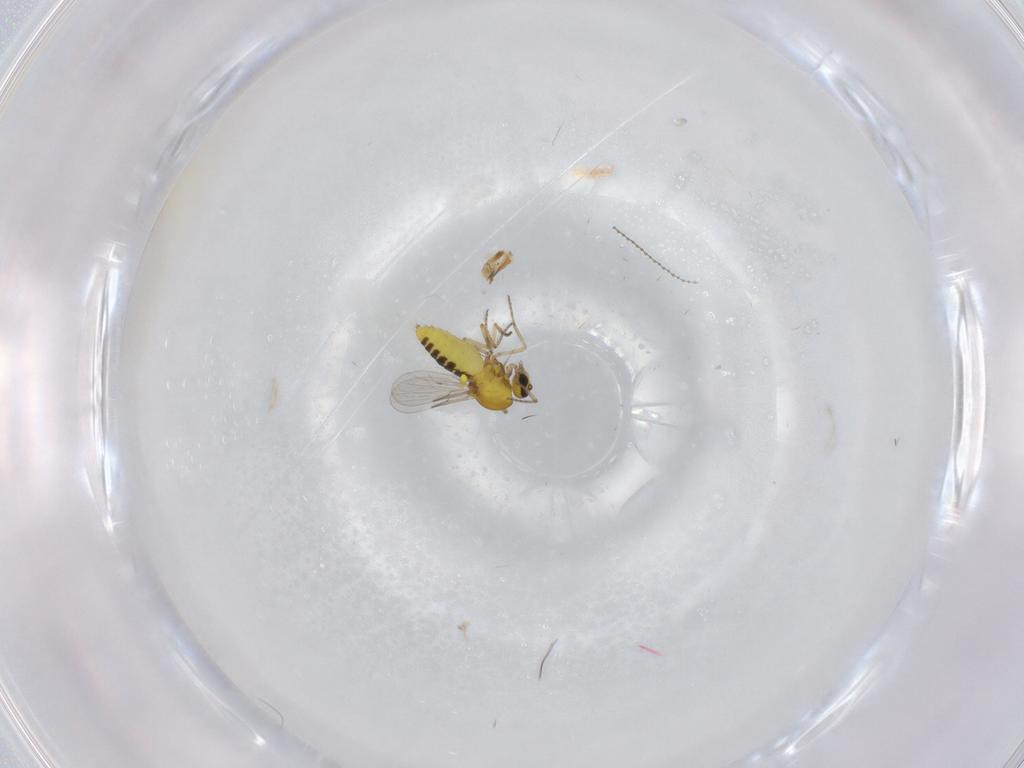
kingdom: Animalia
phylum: Arthropoda
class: Insecta
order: Diptera
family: Ceratopogonidae
